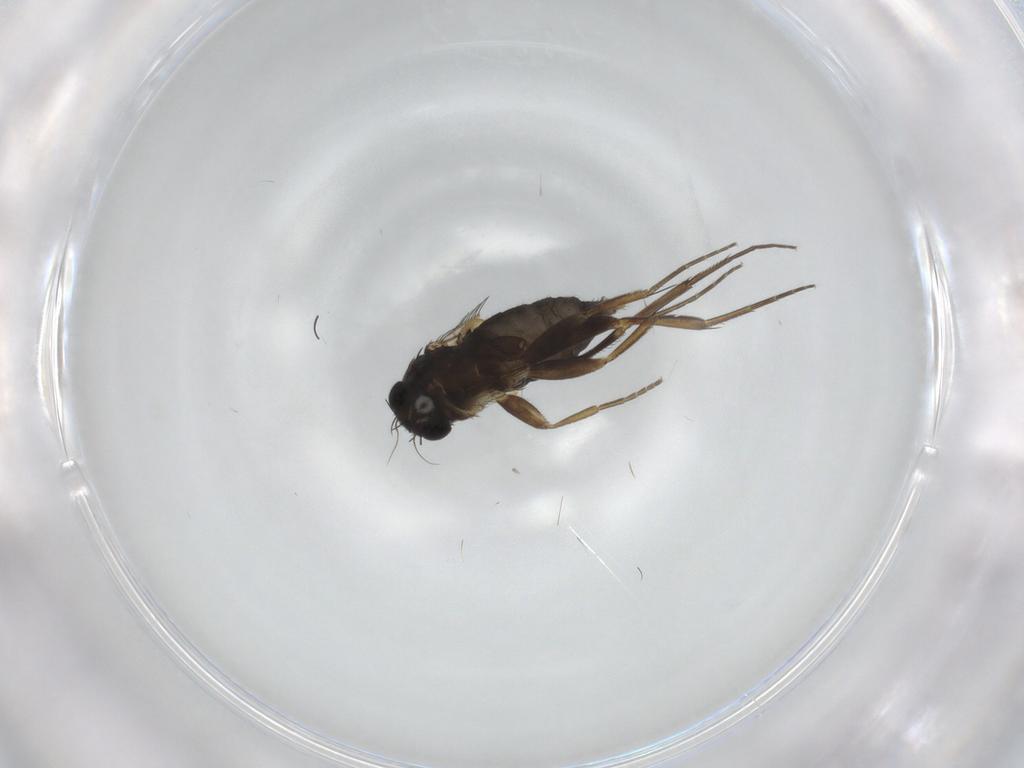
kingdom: Animalia
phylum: Arthropoda
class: Insecta
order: Diptera
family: Phoridae
